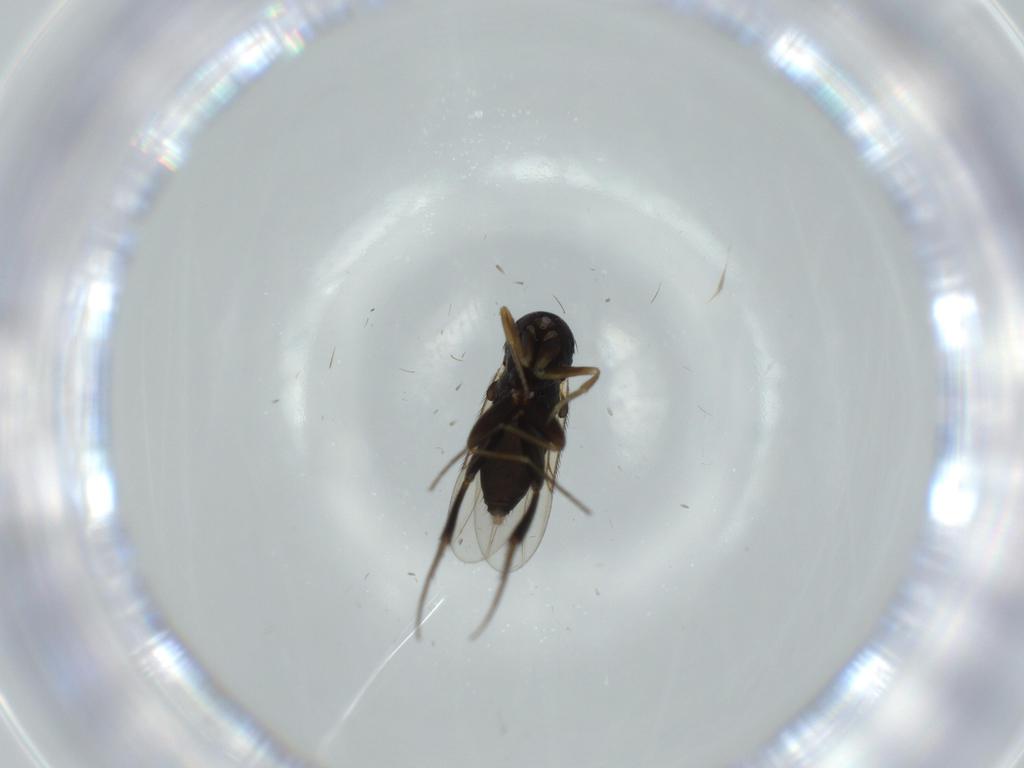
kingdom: Animalia
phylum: Arthropoda
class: Insecta
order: Diptera
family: Phoridae
